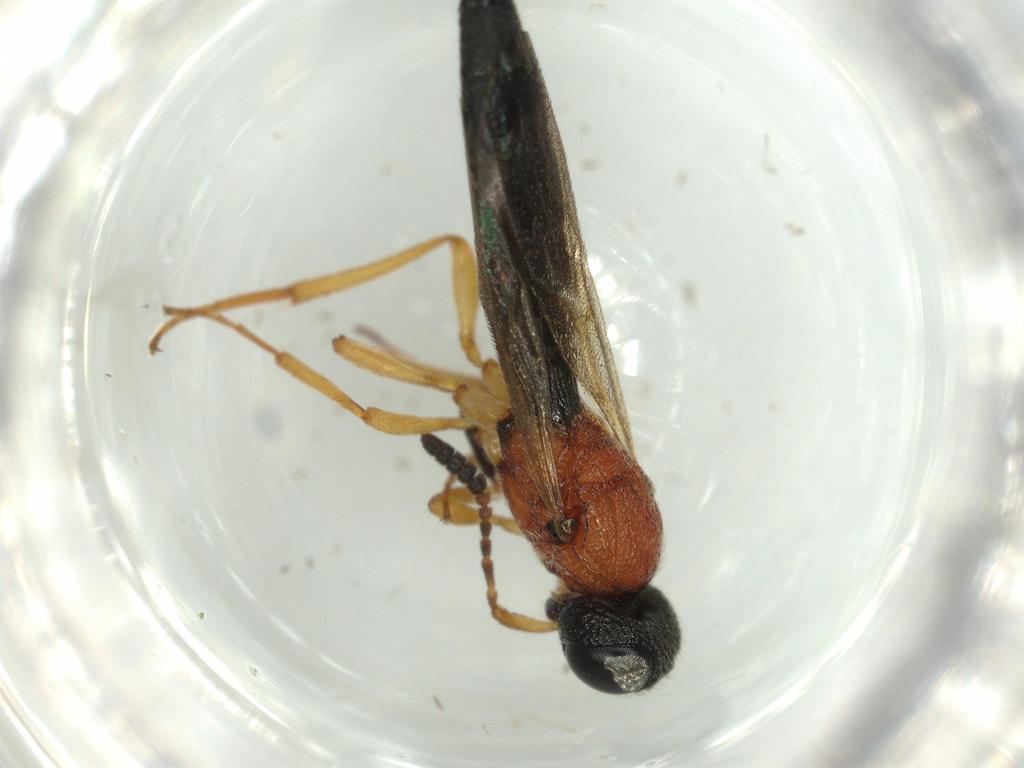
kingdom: Animalia
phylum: Arthropoda
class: Insecta
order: Hymenoptera
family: Scelionidae
